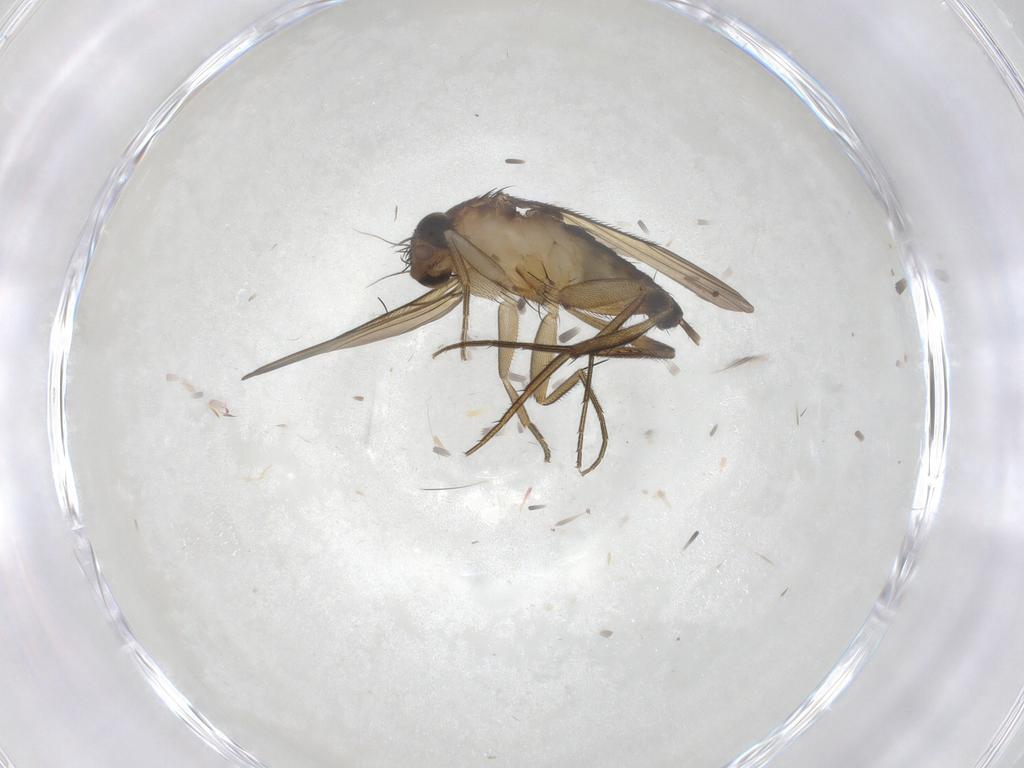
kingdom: Animalia
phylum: Arthropoda
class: Insecta
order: Diptera
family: Phoridae
